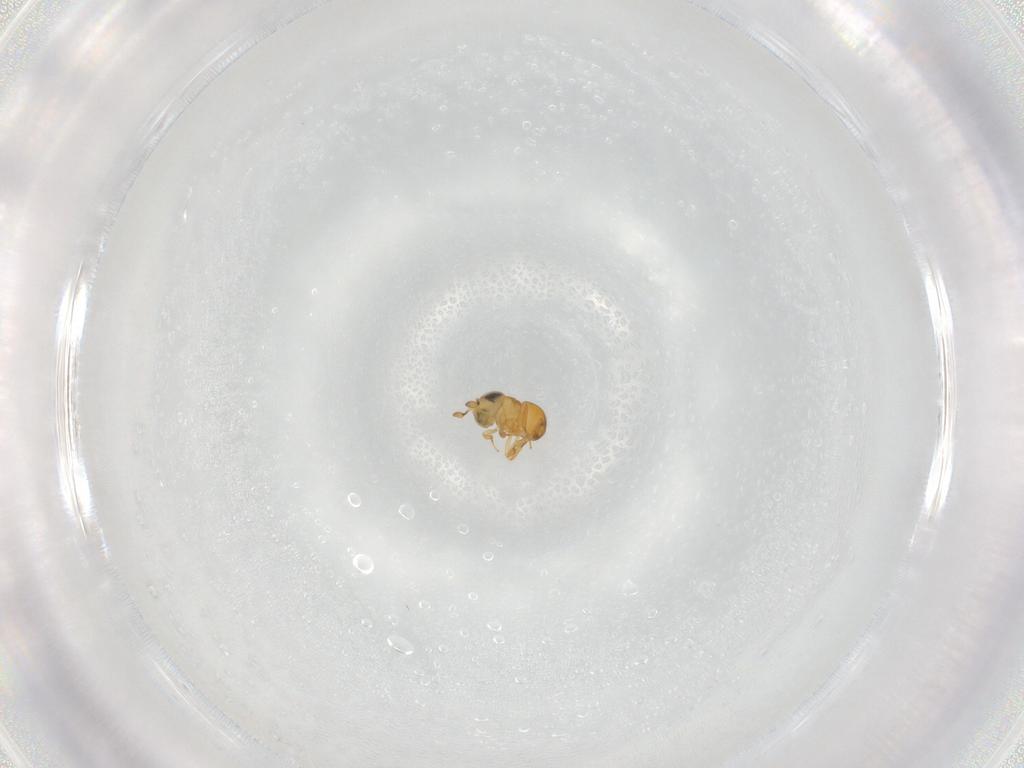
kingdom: Animalia
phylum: Arthropoda
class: Insecta
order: Hymenoptera
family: Scelionidae
